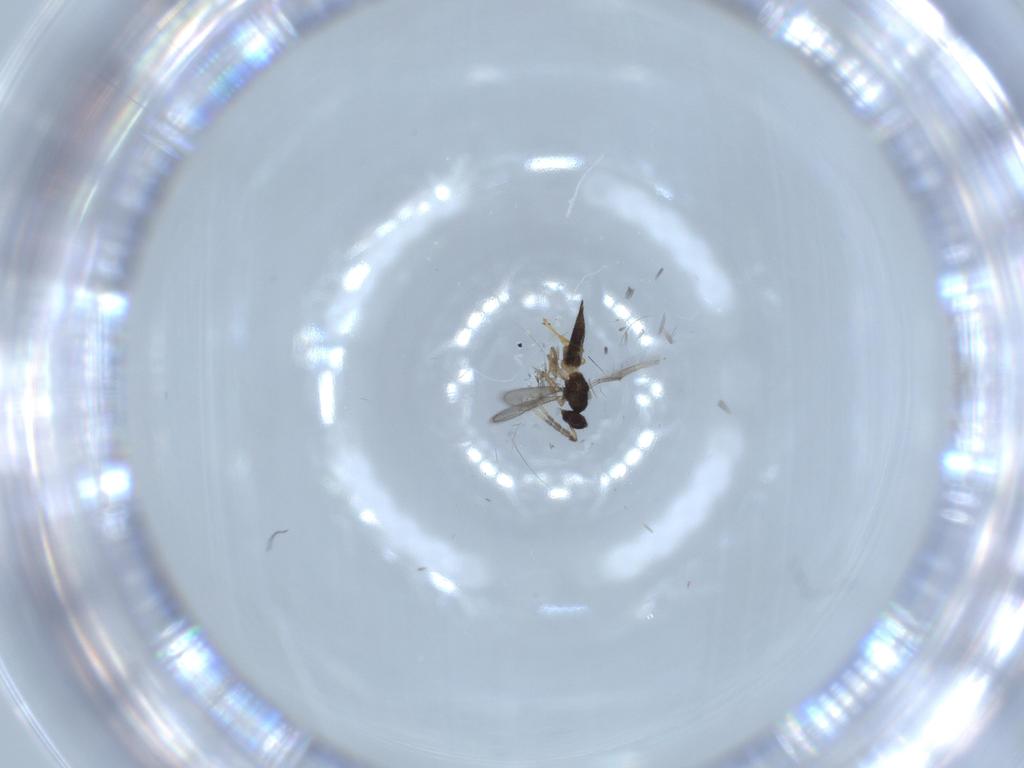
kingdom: Animalia
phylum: Arthropoda
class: Insecta
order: Hymenoptera
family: Eulophidae
